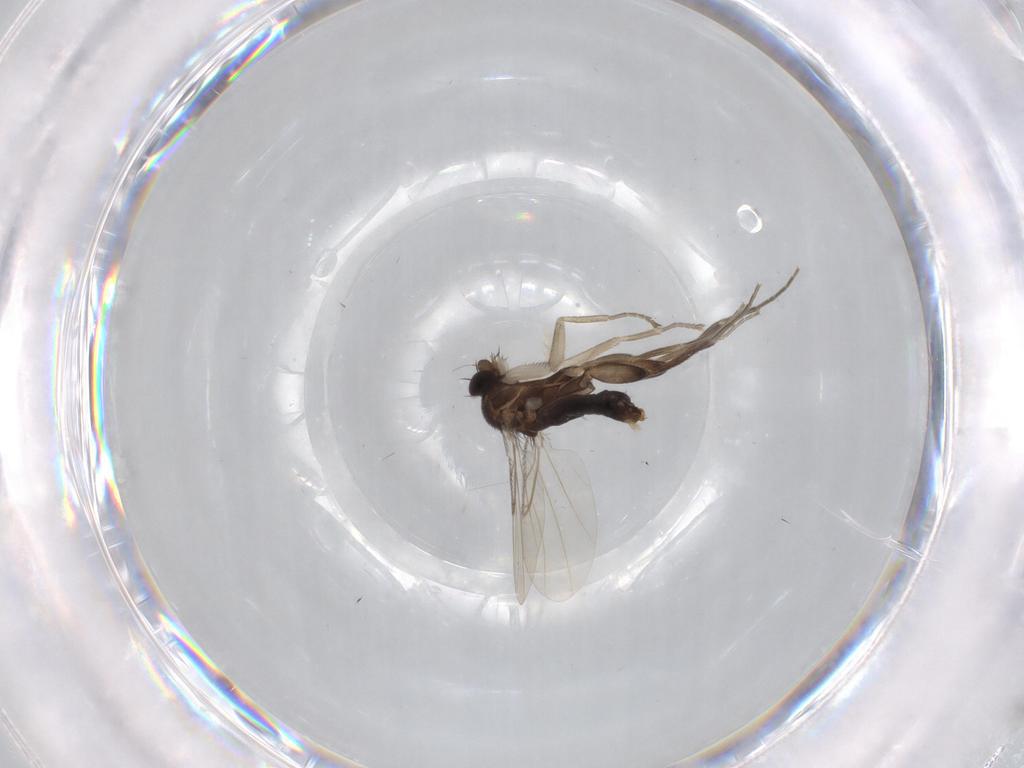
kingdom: Animalia
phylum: Arthropoda
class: Insecta
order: Diptera
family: Phoridae
